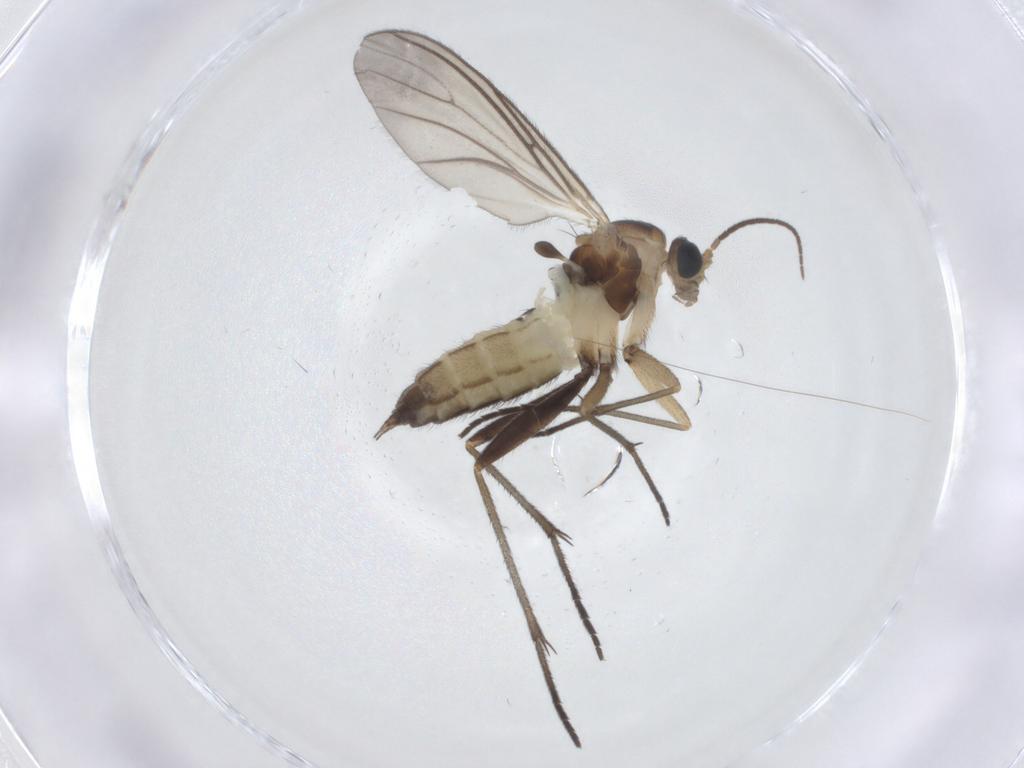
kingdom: Animalia
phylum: Arthropoda
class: Insecta
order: Diptera
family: Sciaridae
